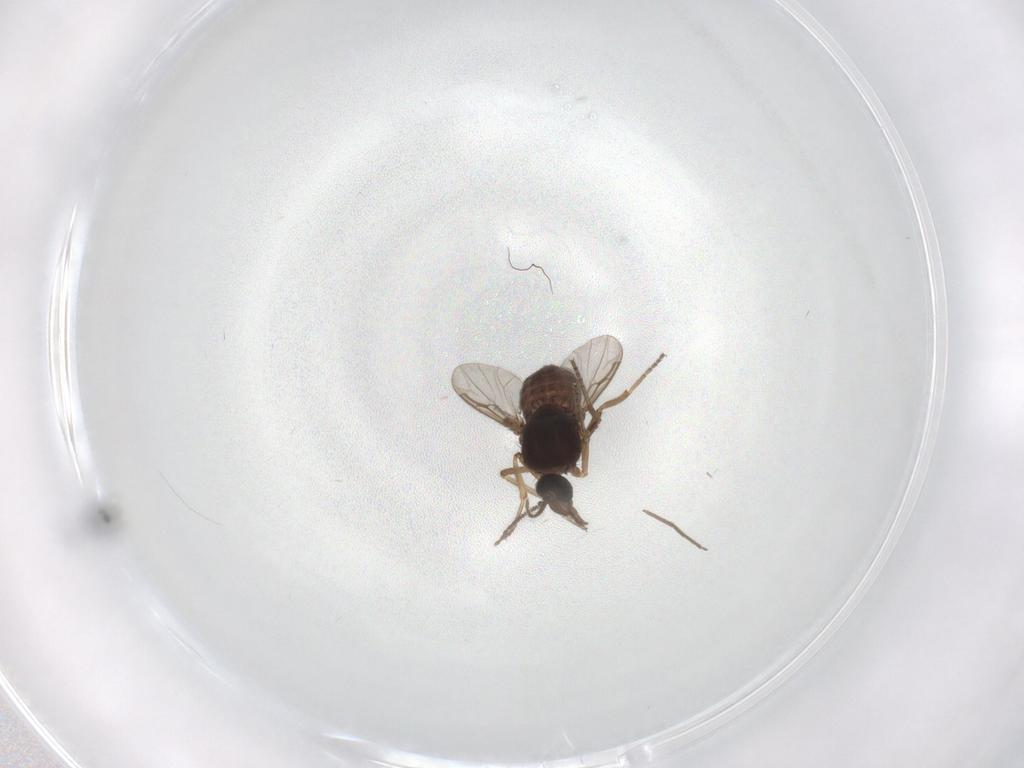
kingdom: Animalia
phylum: Arthropoda
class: Insecta
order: Diptera
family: Ceratopogonidae
